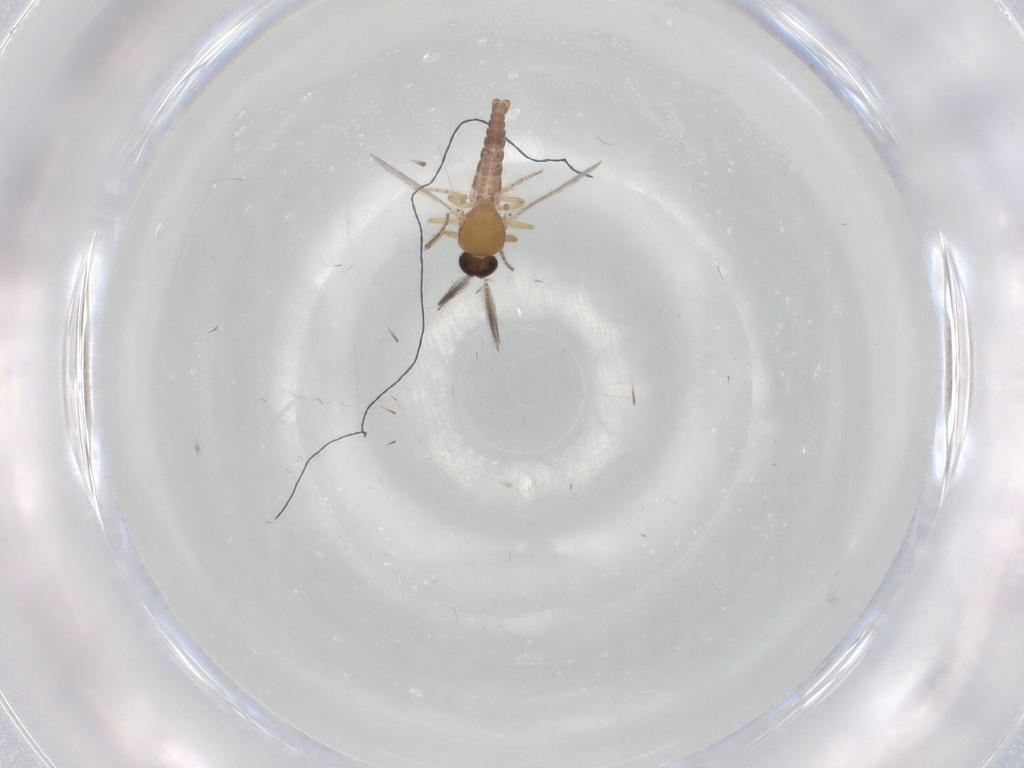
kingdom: Animalia
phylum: Arthropoda
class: Insecta
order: Diptera
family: Ceratopogonidae
